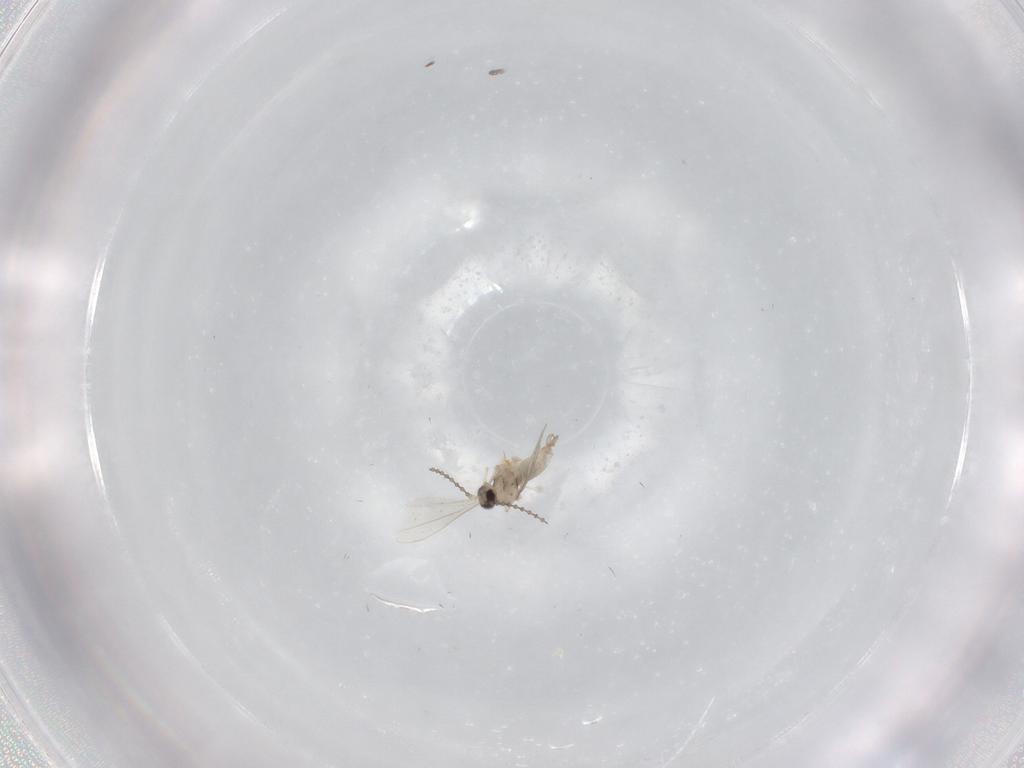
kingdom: Animalia
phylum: Arthropoda
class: Insecta
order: Diptera
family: Cecidomyiidae
